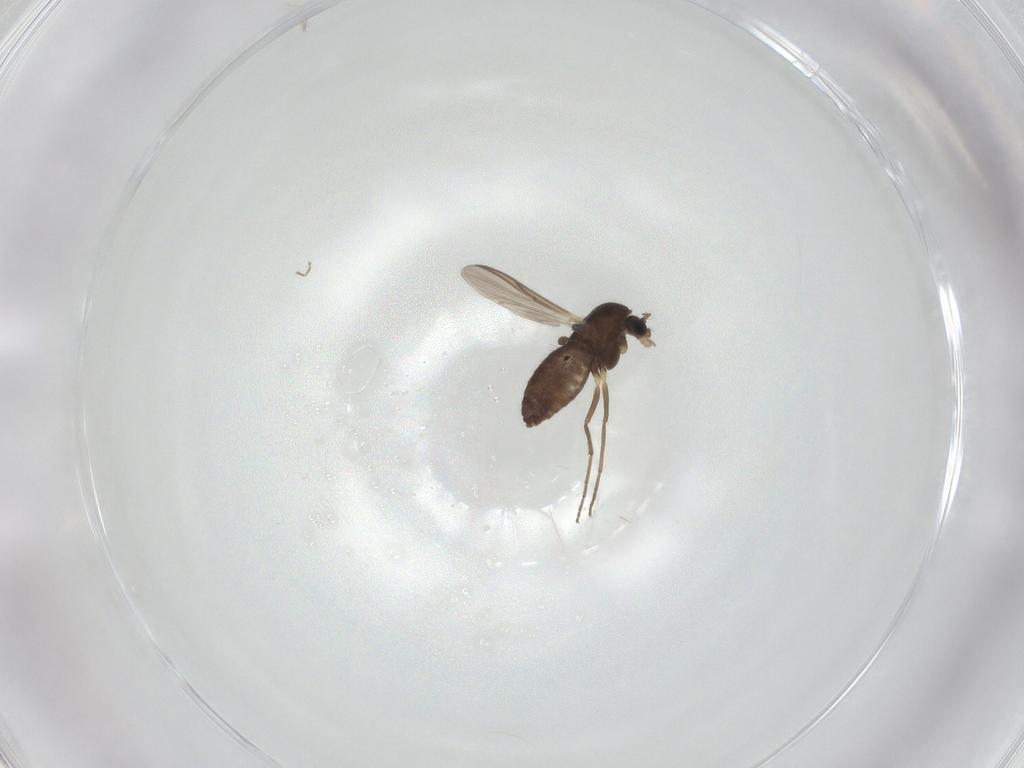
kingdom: Animalia
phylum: Arthropoda
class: Insecta
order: Diptera
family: Chironomidae
